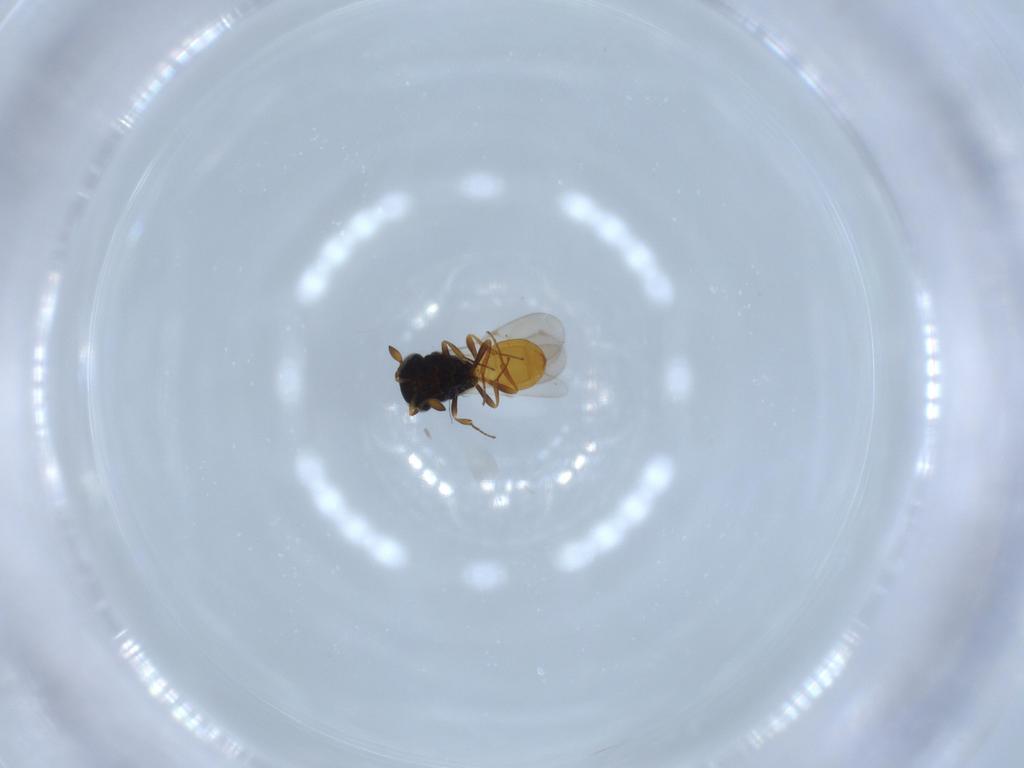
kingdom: Animalia
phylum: Arthropoda
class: Insecta
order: Hymenoptera
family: Scelionidae
